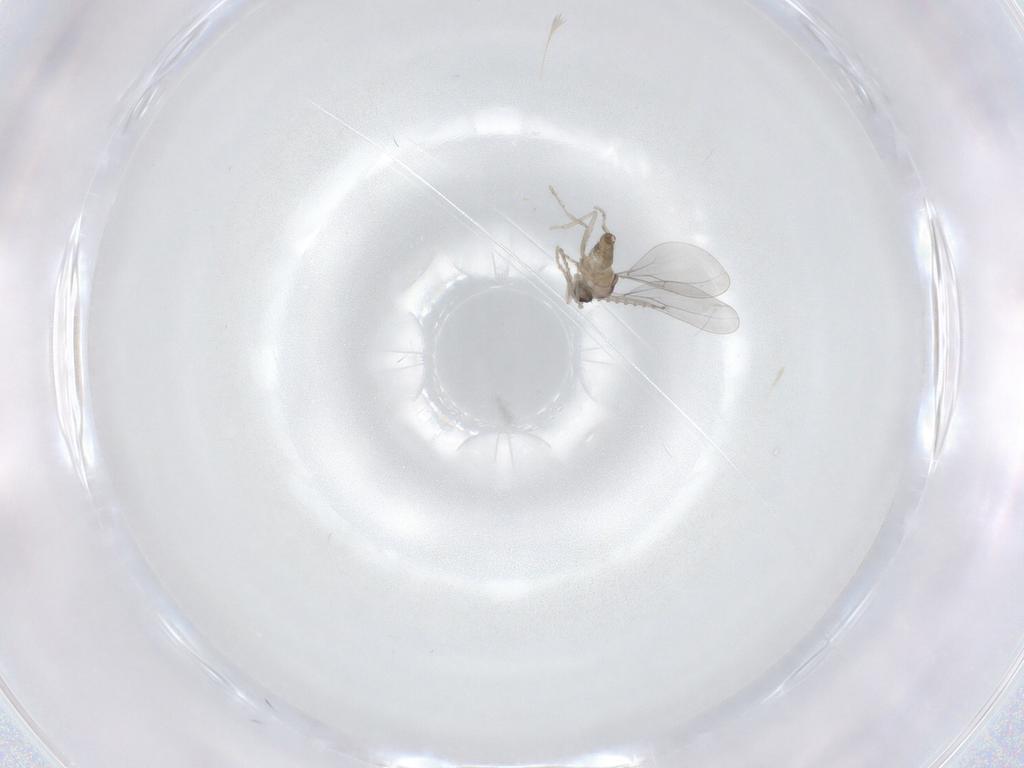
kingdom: Animalia
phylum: Arthropoda
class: Insecta
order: Diptera
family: Cecidomyiidae
